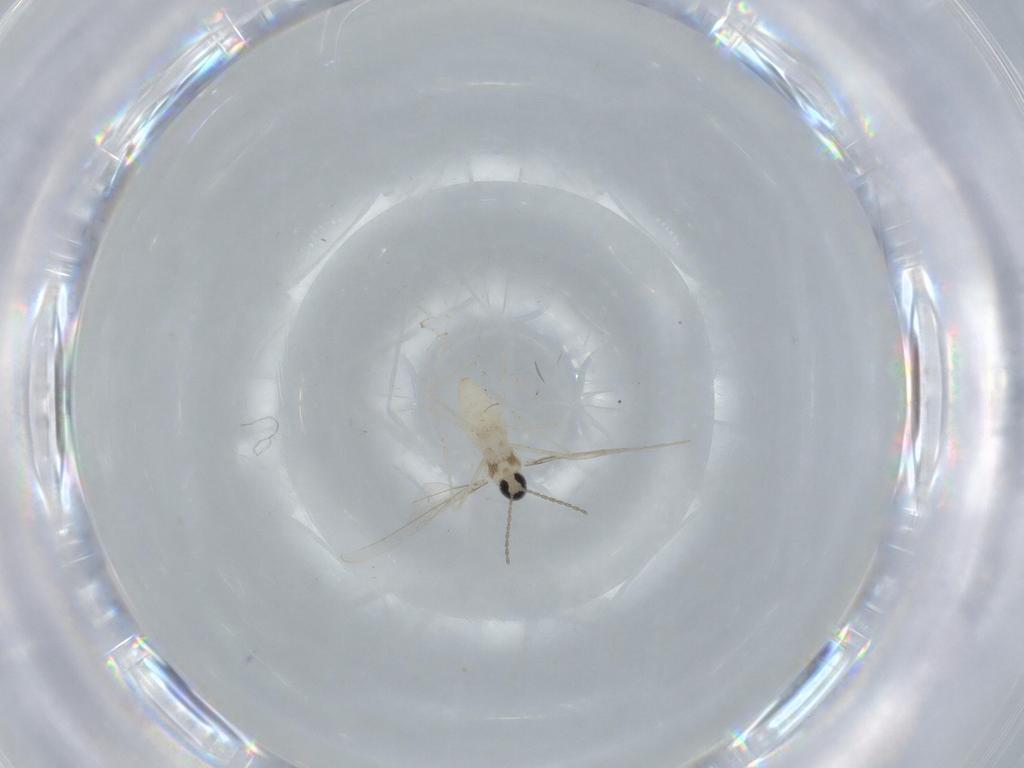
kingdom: Animalia
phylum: Arthropoda
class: Insecta
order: Diptera
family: Cecidomyiidae
